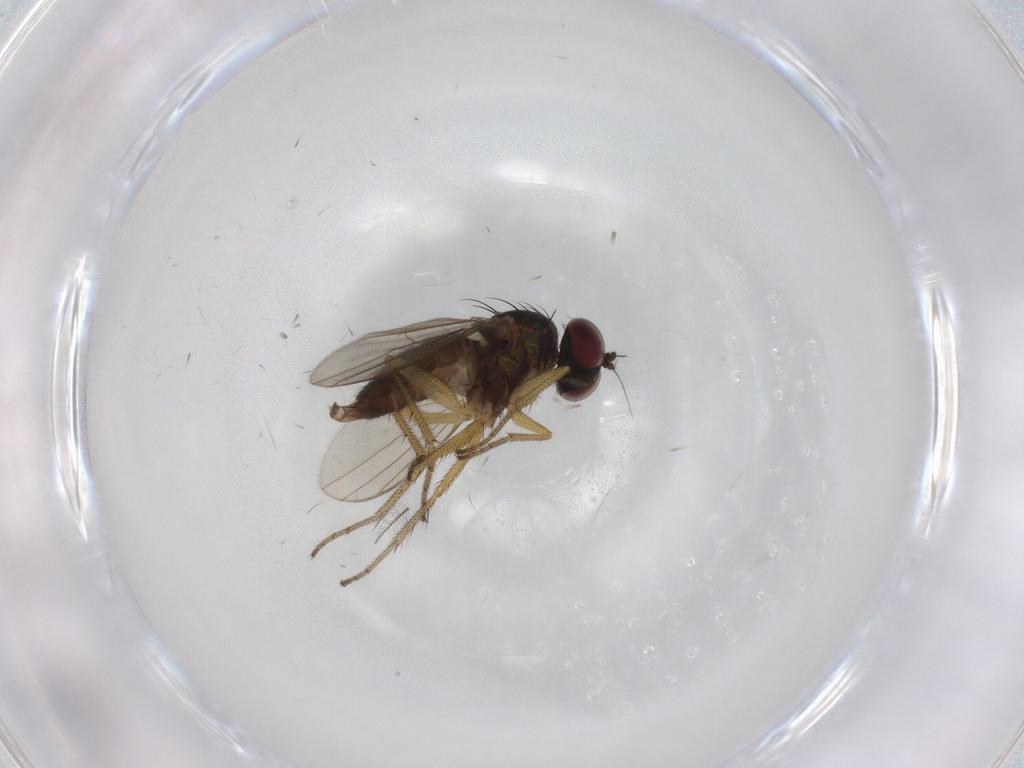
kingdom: Animalia
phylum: Arthropoda
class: Insecta
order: Diptera
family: Dolichopodidae
